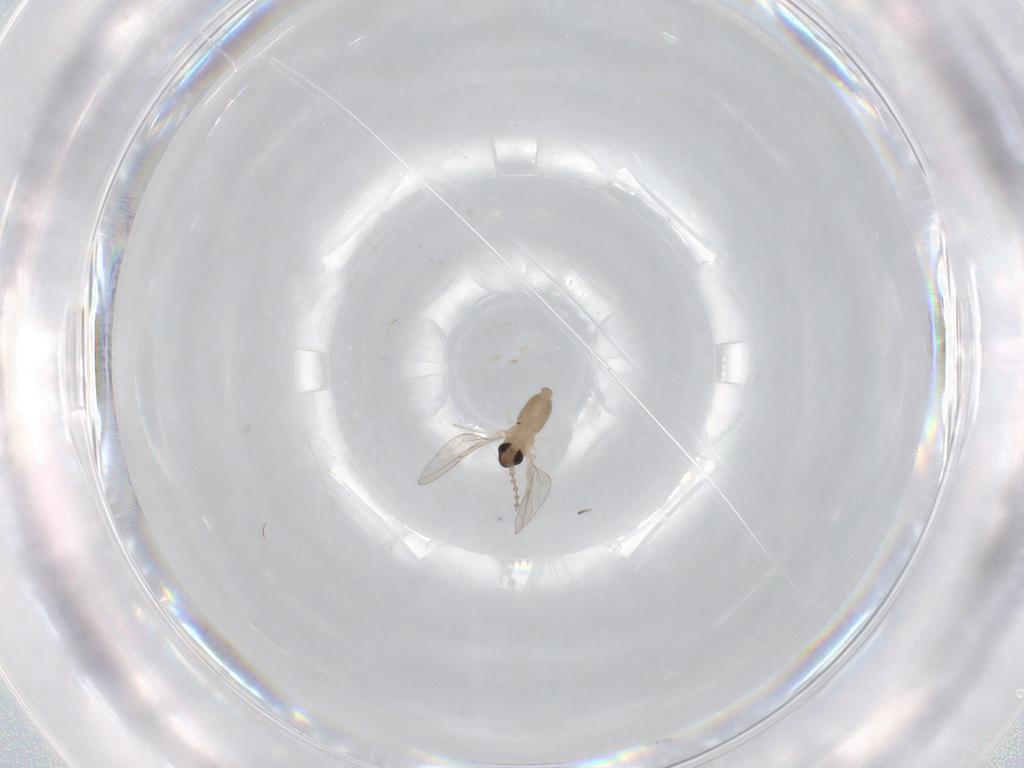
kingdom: Animalia
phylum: Arthropoda
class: Insecta
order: Diptera
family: Cecidomyiidae
